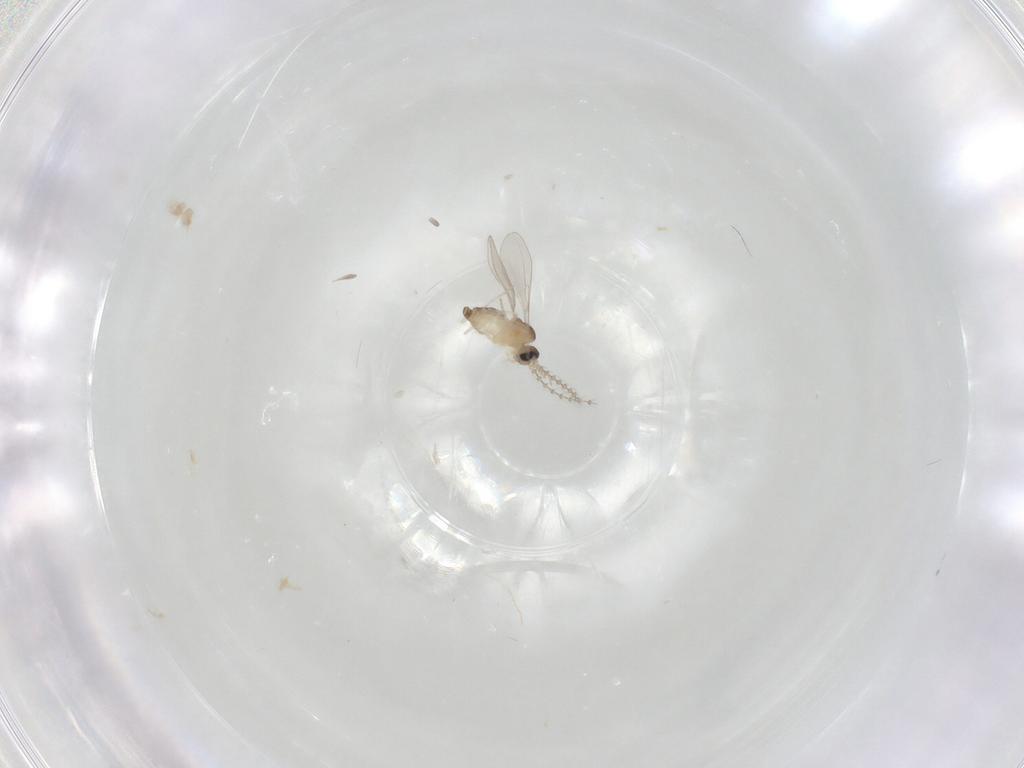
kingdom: Animalia
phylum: Arthropoda
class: Insecta
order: Diptera
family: Cecidomyiidae
